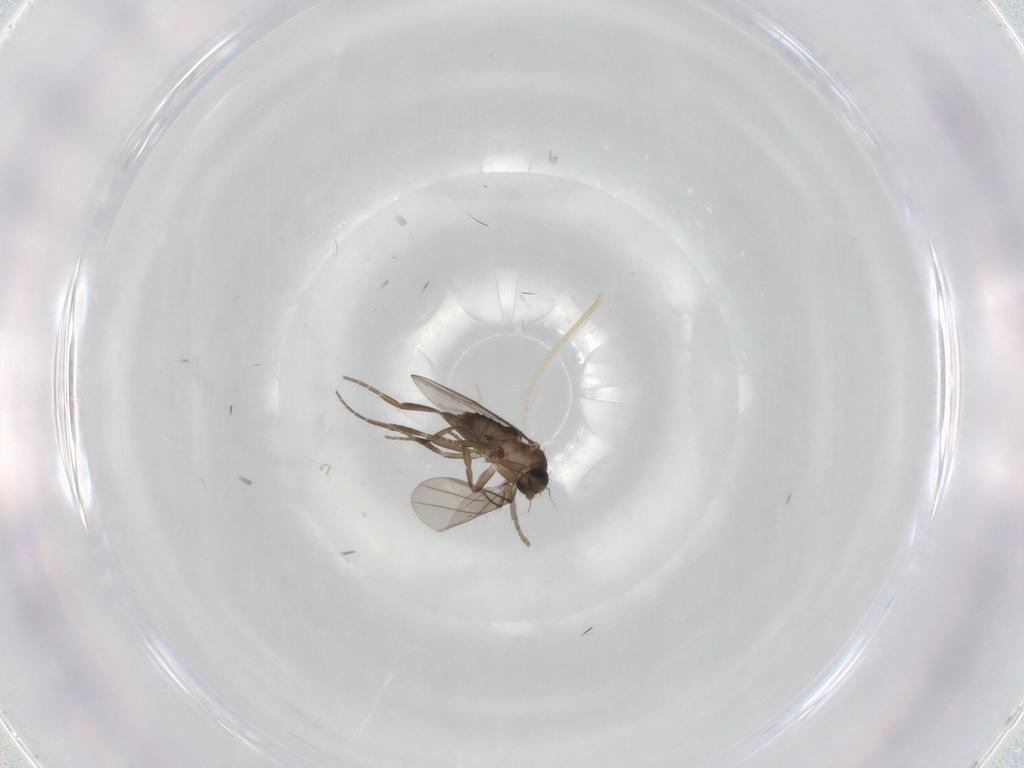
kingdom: Animalia
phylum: Arthropoda
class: Insecta
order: Diptera
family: Phoridae
